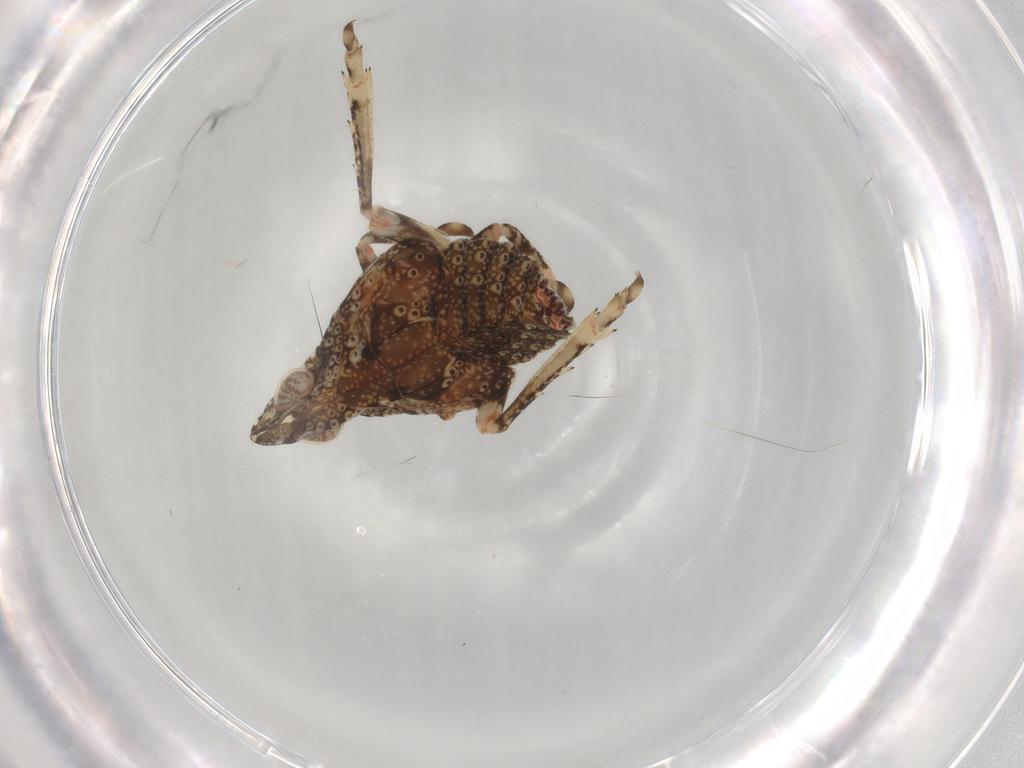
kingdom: Animalia
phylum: Arthropoda
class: Insecta
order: Hemiptera
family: Tropiduchidae
